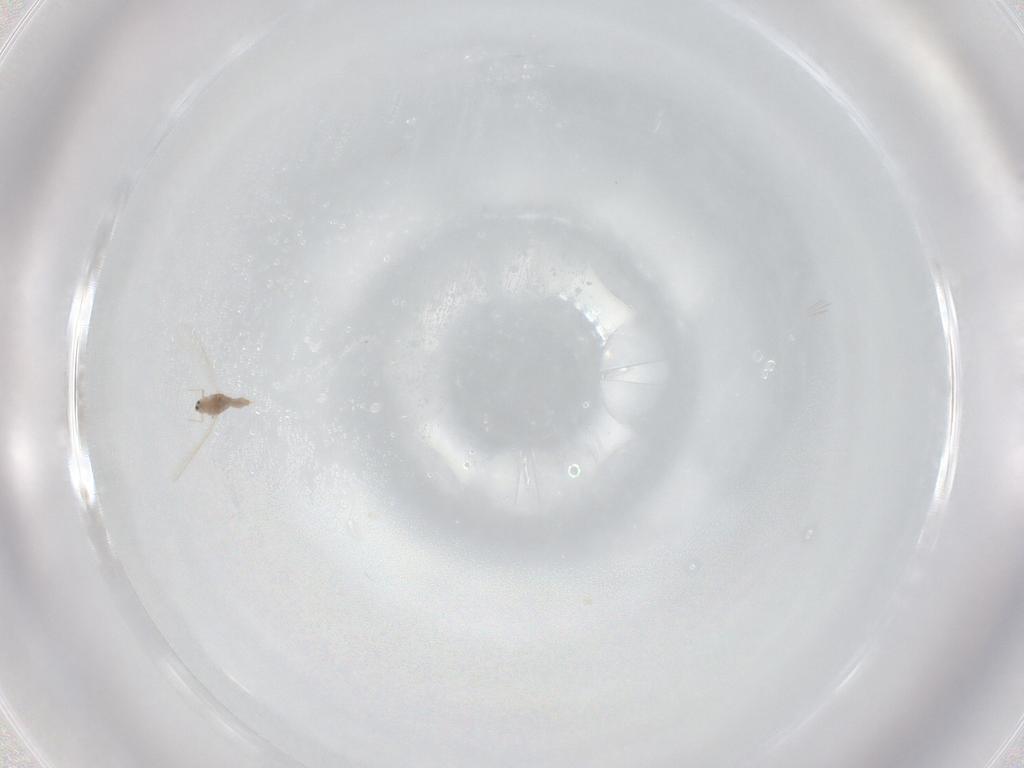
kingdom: Animalia
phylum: Arthropoda
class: Insecta
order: Hemiptera
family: Coccoidea_incertae_sedis
